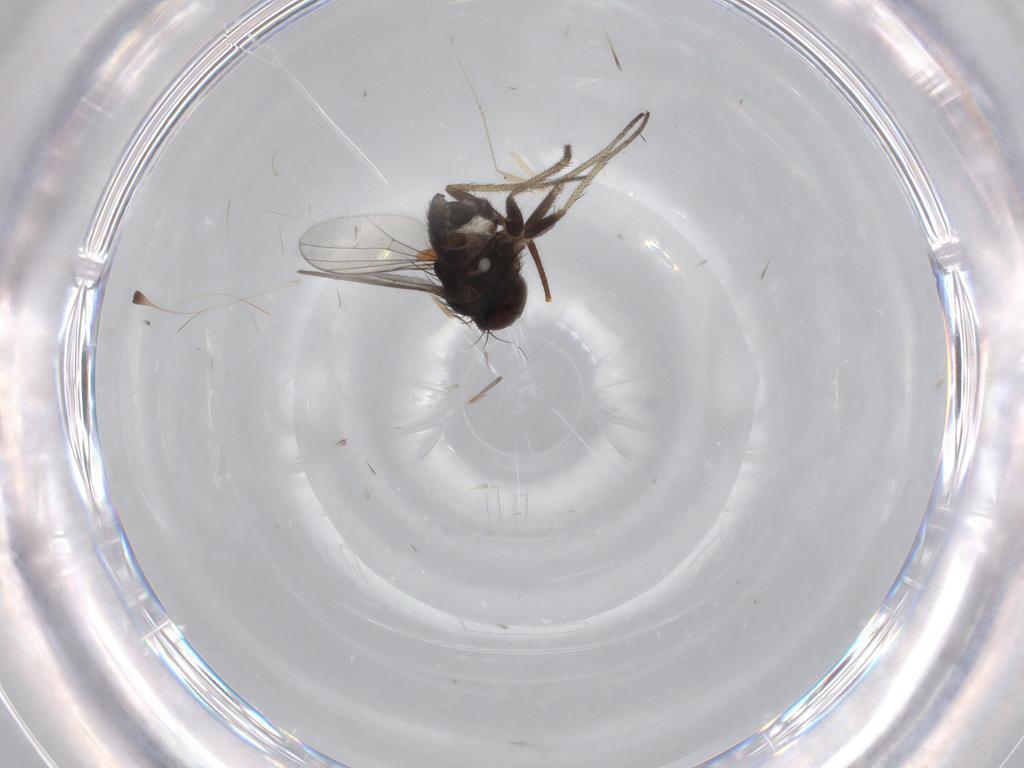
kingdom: Animalia
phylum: Arthropoda
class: Insecta
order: Diptera
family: Dolichopodidae
